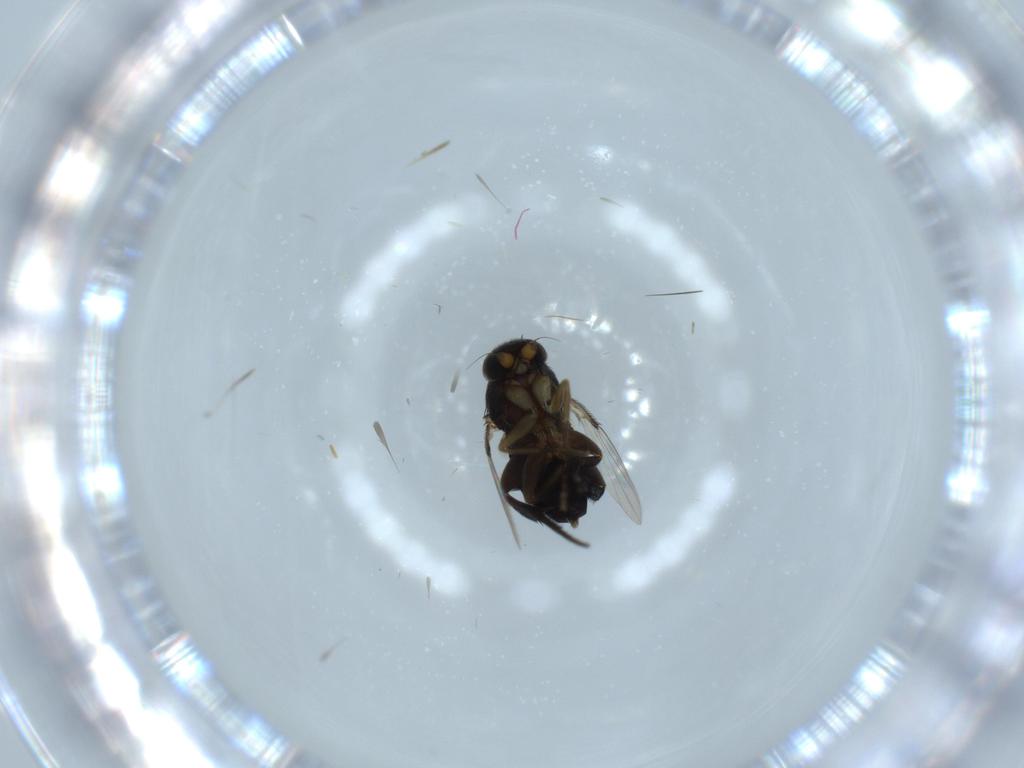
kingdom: Animalia
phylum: Arthropoda
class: Insecta
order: Diptera
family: Phoridae
